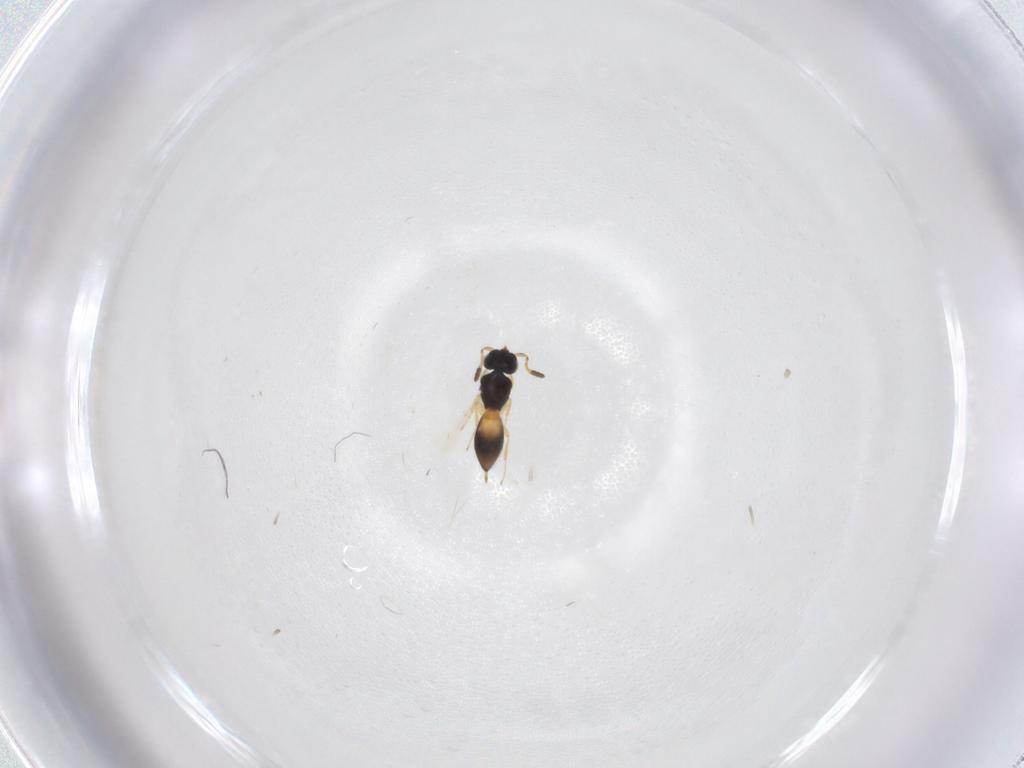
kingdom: Animalia
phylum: Arthropoda
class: Insecta
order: Hymenoptera
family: Scelionidae
